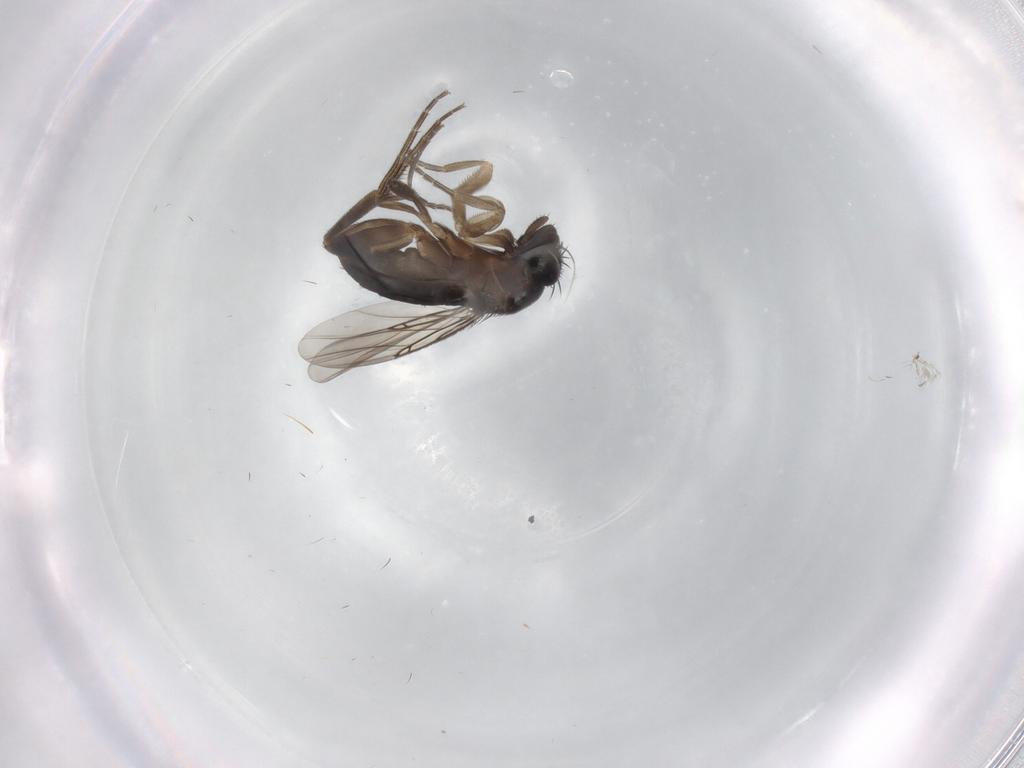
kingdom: Animalia
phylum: Arthropoda
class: Insecta
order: Diptera
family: Phoridae
